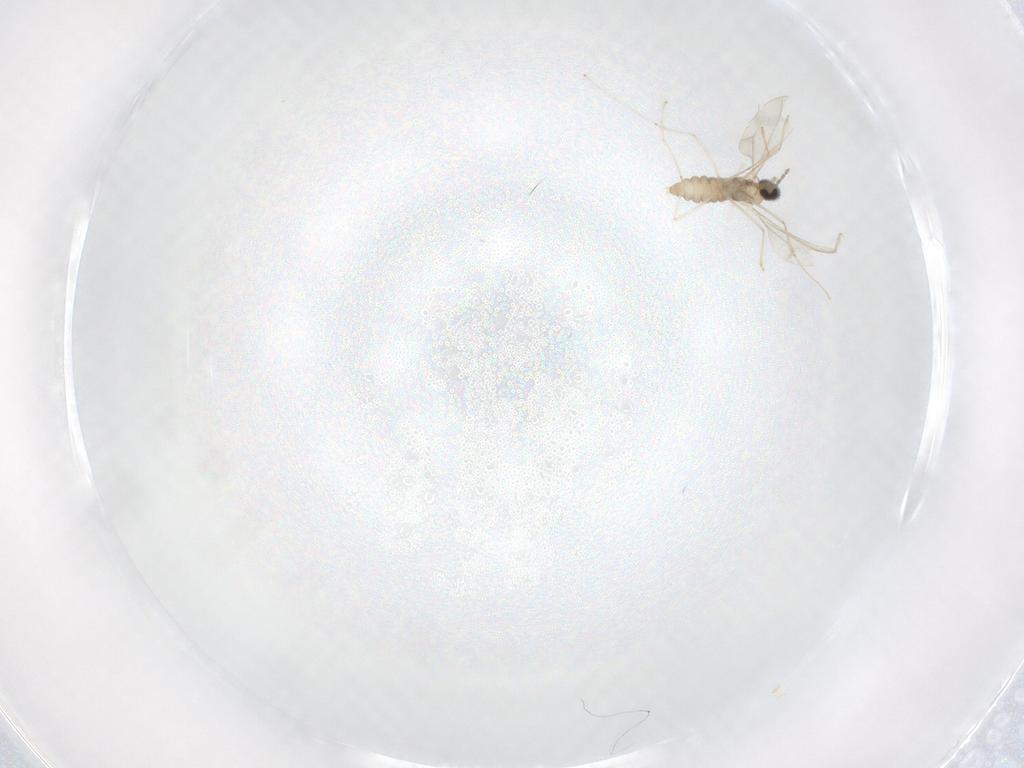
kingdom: Animalia
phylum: Arthropoda
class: Insecta
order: Diptera
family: Cecidomyiidae
